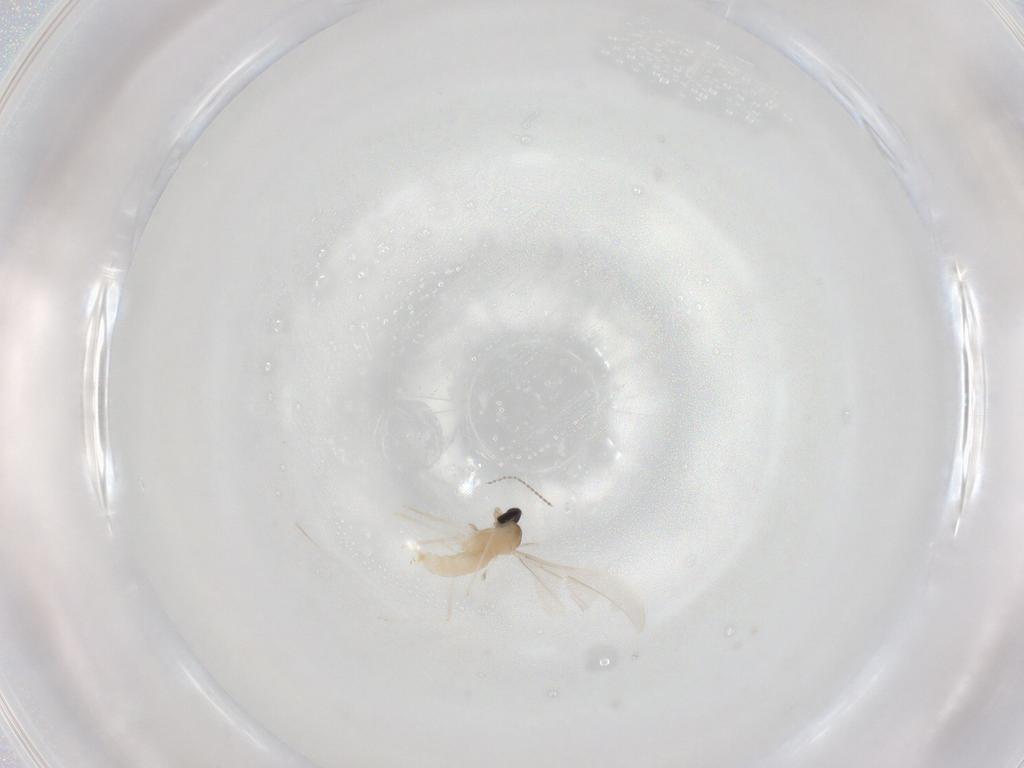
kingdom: Animalia
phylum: Arthropoda
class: Insecta
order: Diptera
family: Cecidomyiidae
